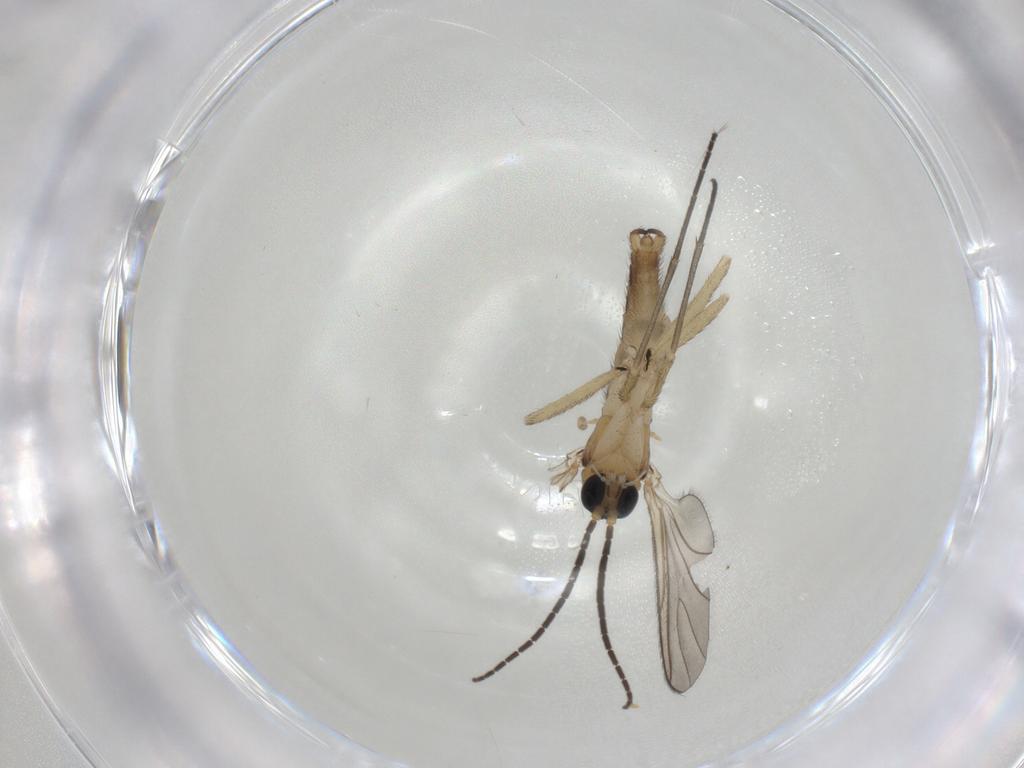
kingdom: Animalia
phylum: Arthropoda
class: Insecta
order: Diptera
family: Sciaridae
